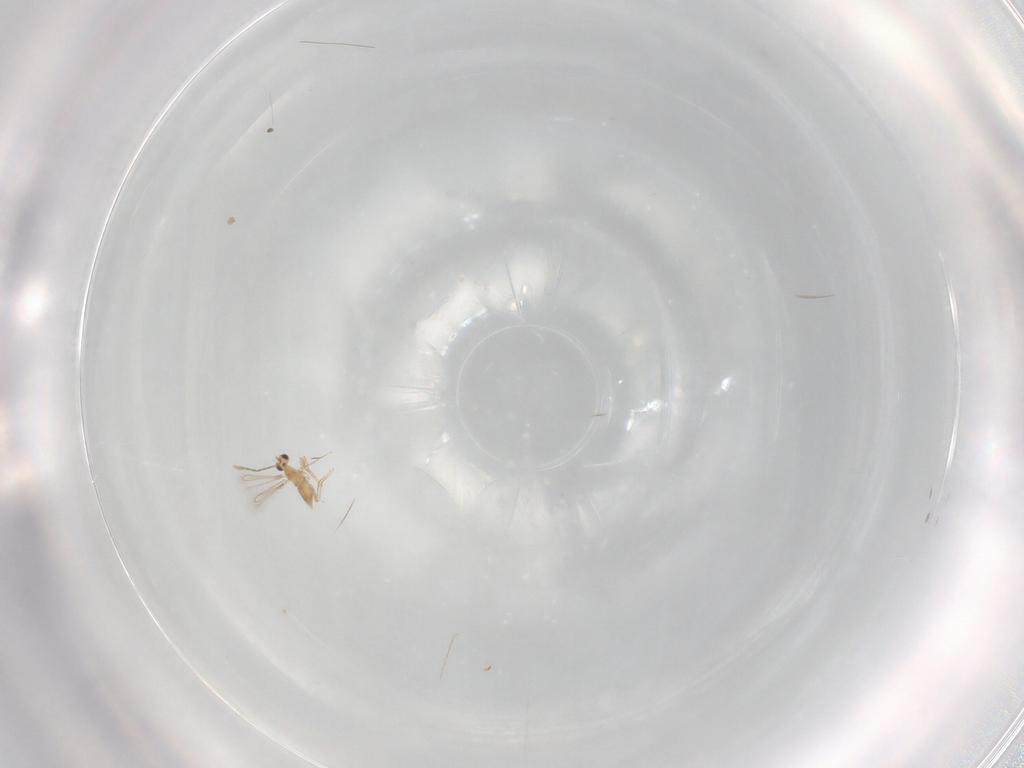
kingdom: Animalia
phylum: Arthropoda
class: Insecta
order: Hymenoptera
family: Mymaridae
